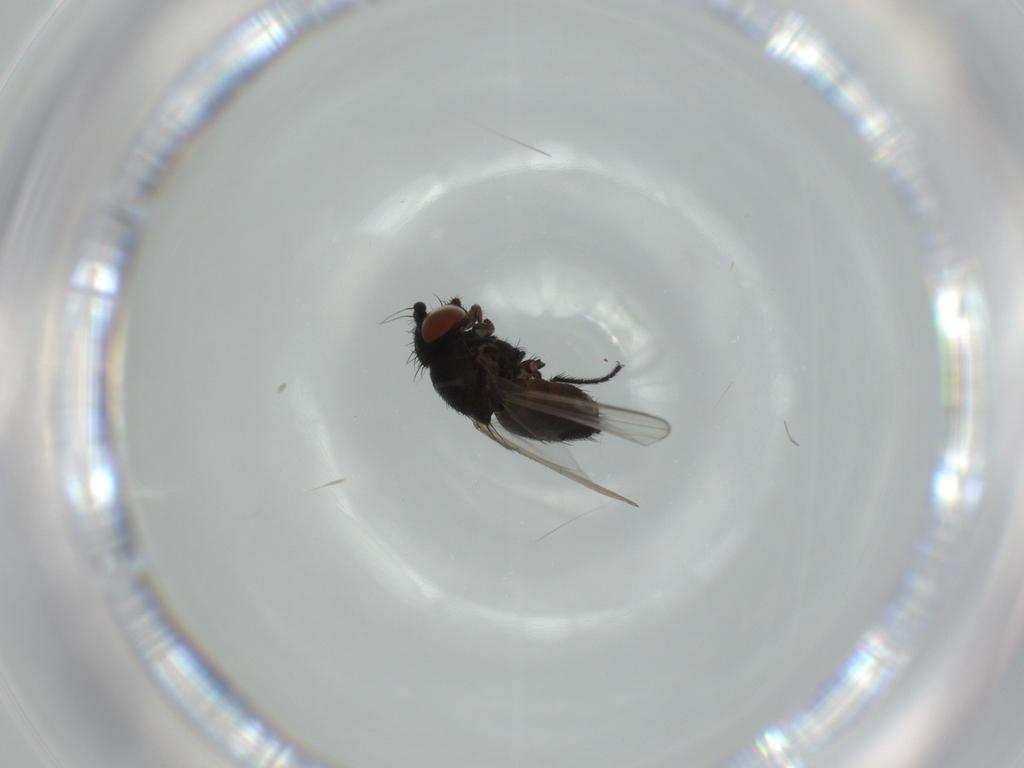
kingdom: Animalia
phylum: Arthropoda
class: Insecta
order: Diptera
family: Milichiidae
